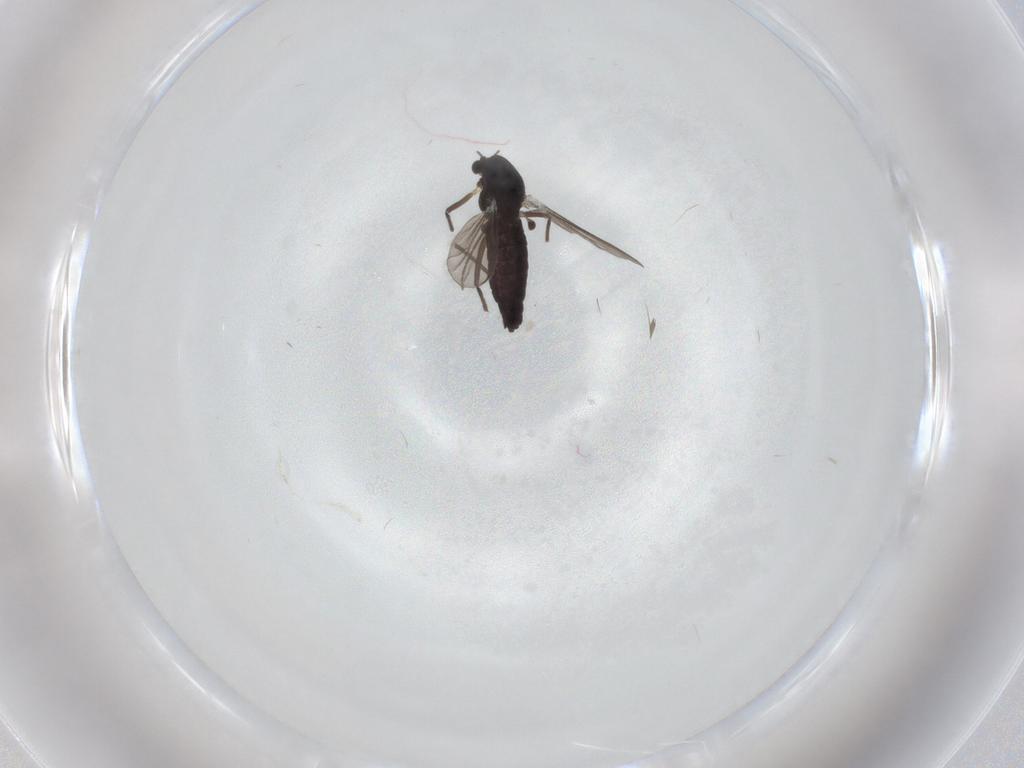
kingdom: Animalia
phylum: Arthropoda
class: Insecta
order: Diptera
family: Chironomidae
